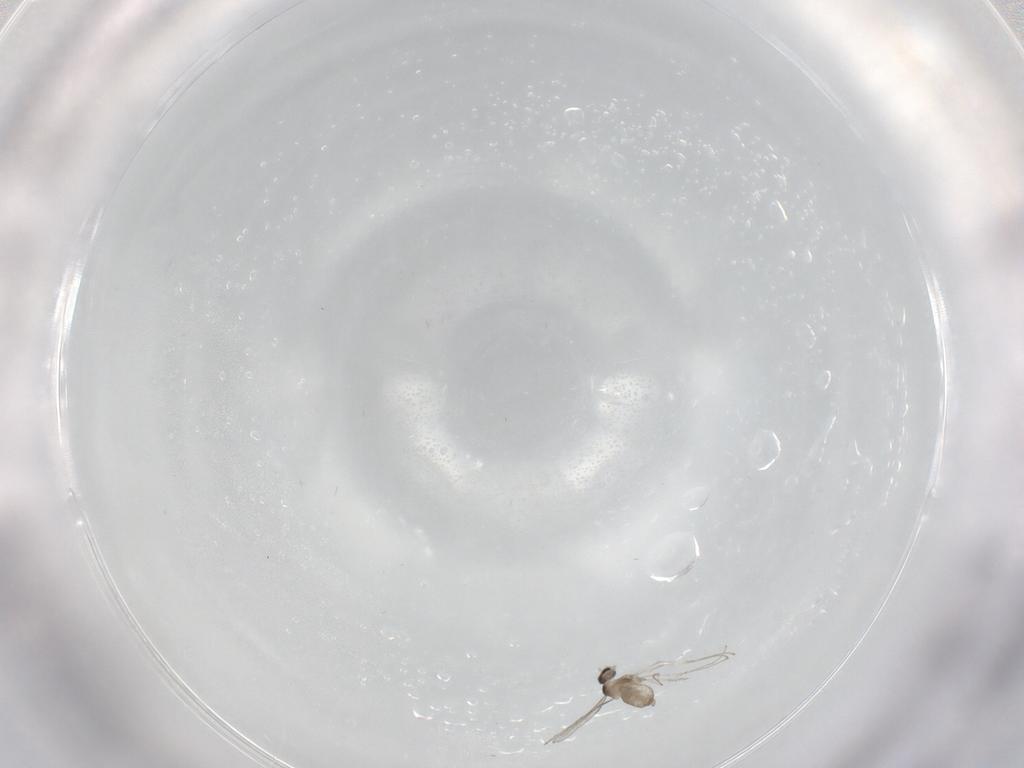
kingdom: Animalia
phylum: Arthropoda
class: Insecta
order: Diptera
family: Cecidomyiidae
